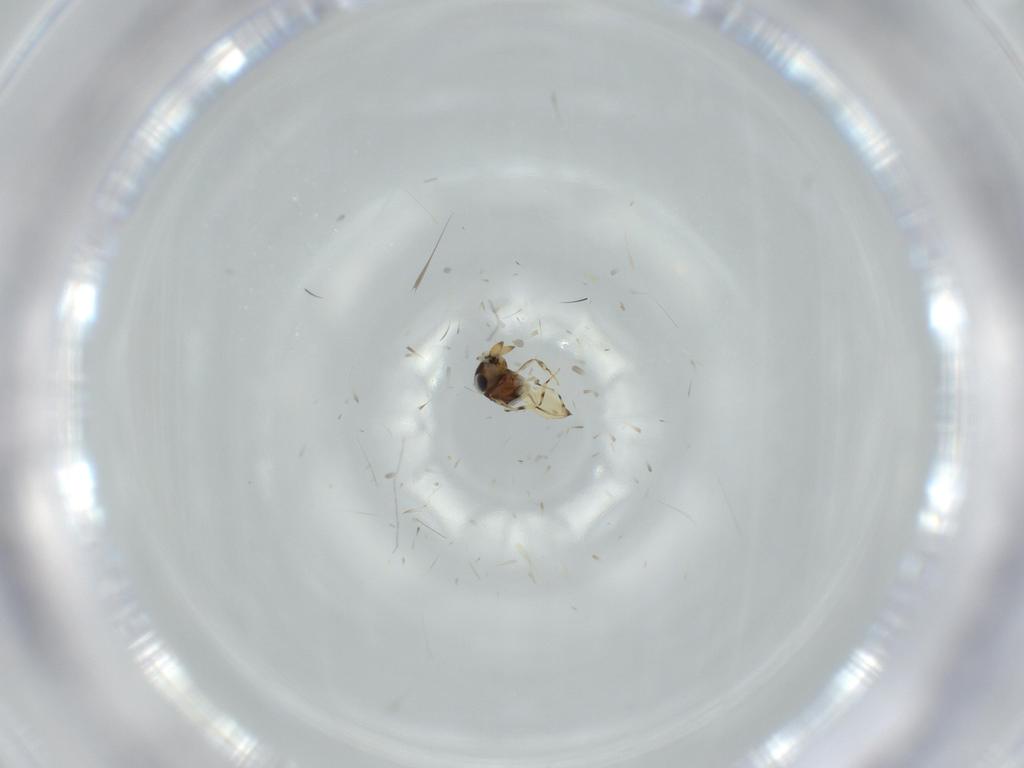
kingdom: Animalia
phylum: Arthropoda
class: Insecta
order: Hymenoptera
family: Scelionidae
